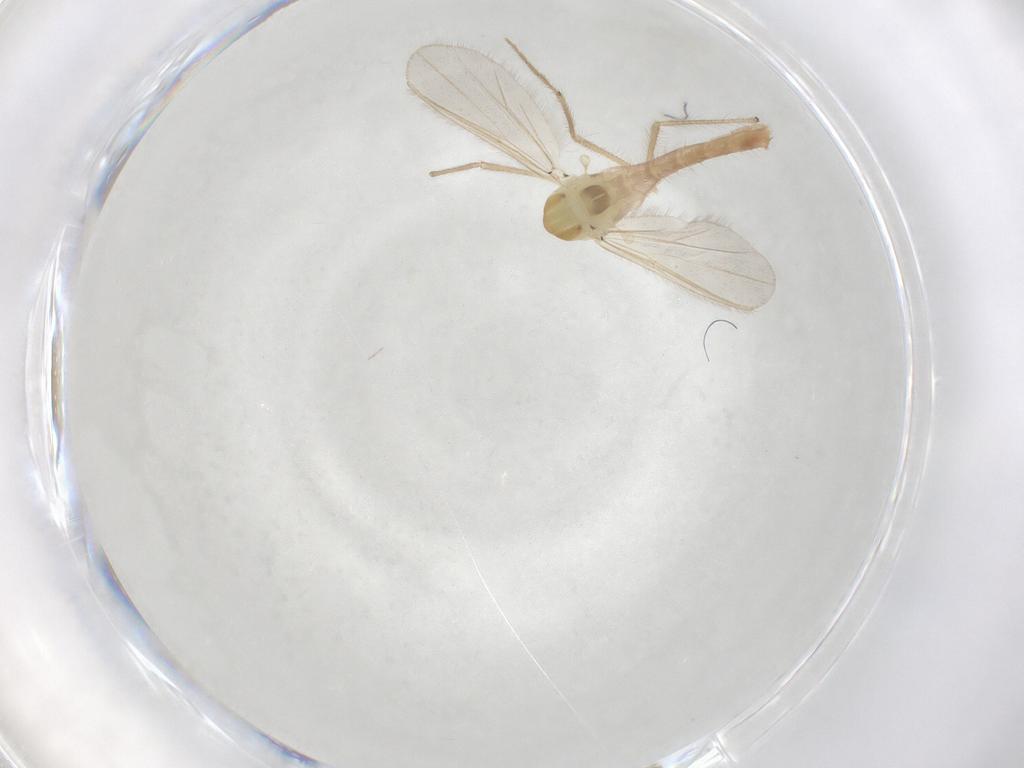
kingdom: Animalia
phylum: Arthropoda
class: Insecta
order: Diptera
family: Chironomidae
